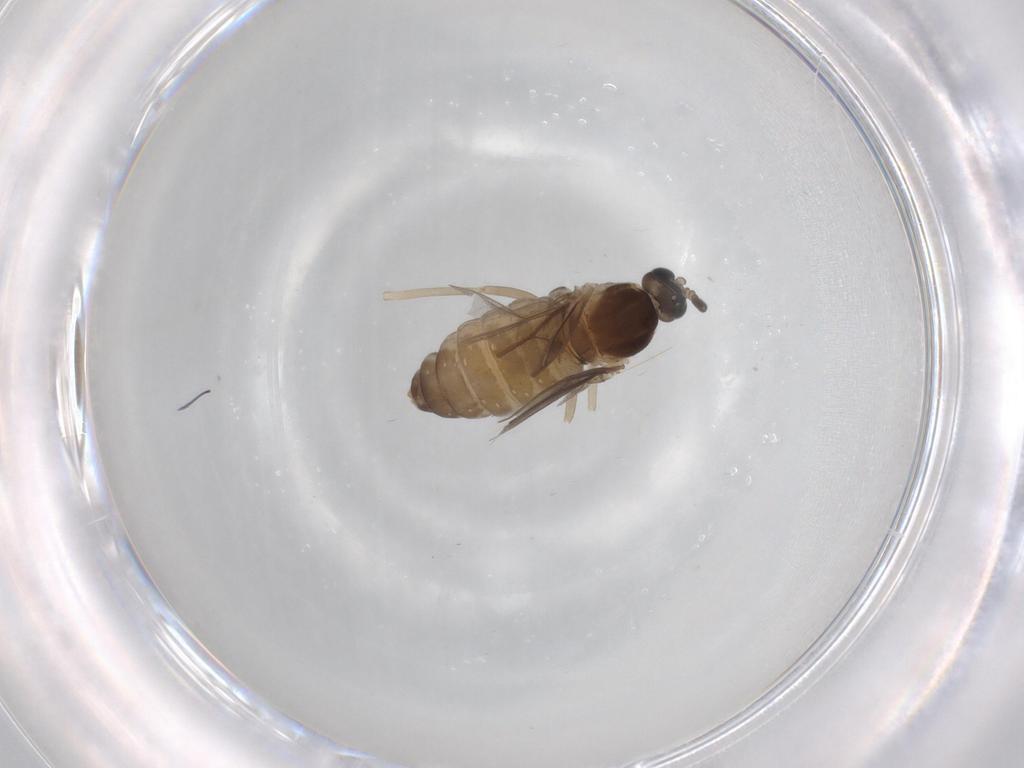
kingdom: Animalia
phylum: Arthropoda
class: Insecta
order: Diptera
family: Cecidomyiidae
